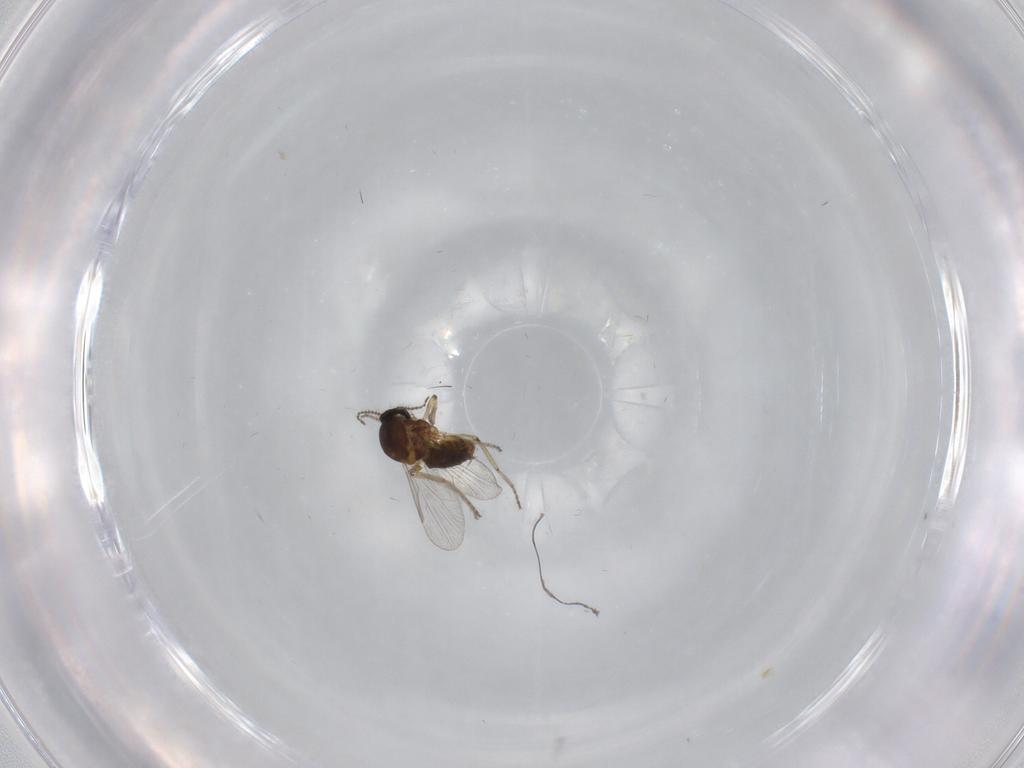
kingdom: Animalia
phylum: Arthropoda
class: Insecta
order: Diptera
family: Ceratopogonidae
